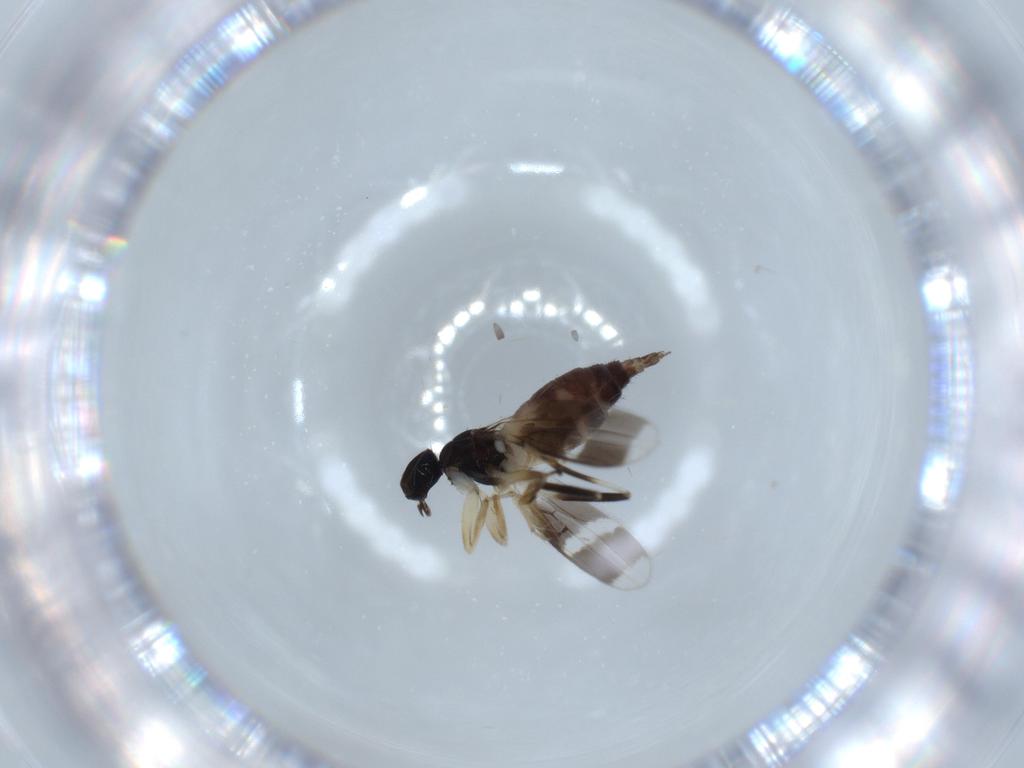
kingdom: Animalia
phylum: Arthropoda
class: Insecta
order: Diptera
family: Hybotidae
